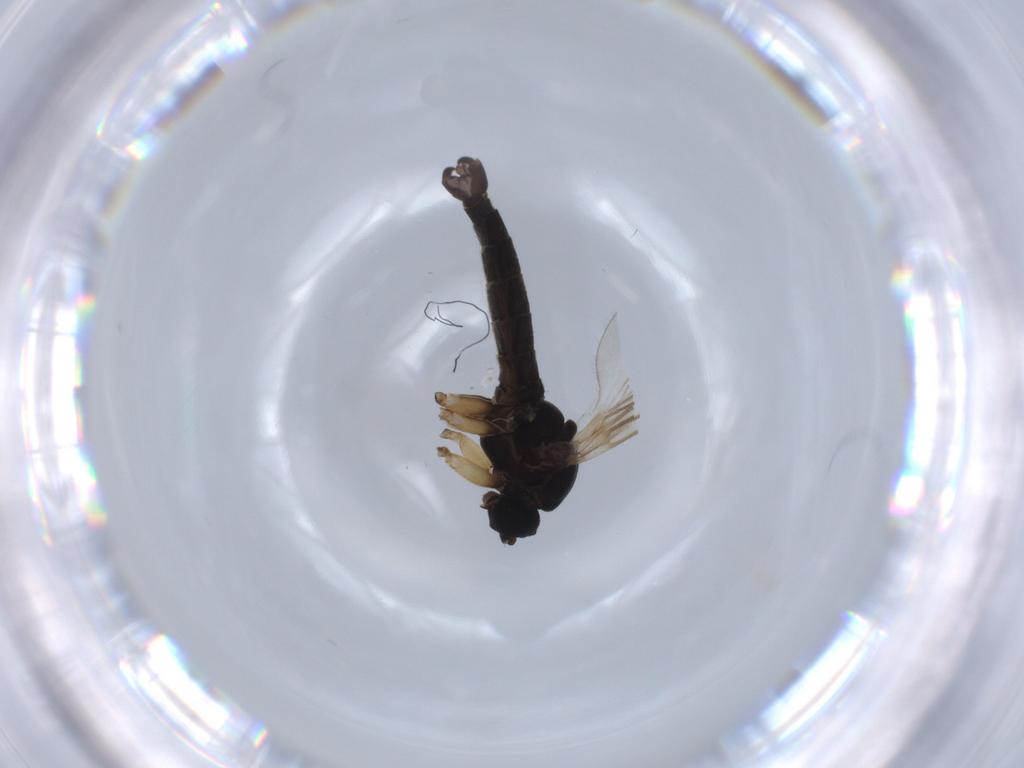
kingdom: Animalia
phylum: Arthropoda
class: Insecta
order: Diptera
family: Sciaridae
